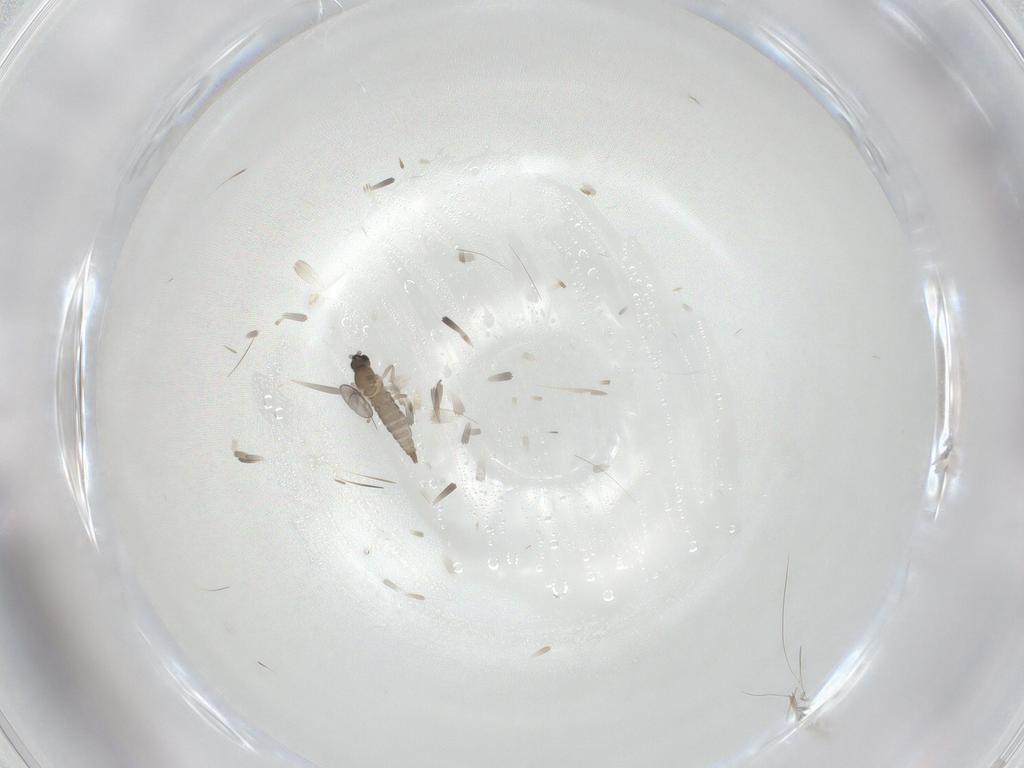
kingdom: Animalia
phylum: Arthropoda
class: Insecta
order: Diptera
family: Cecidomyiidae
